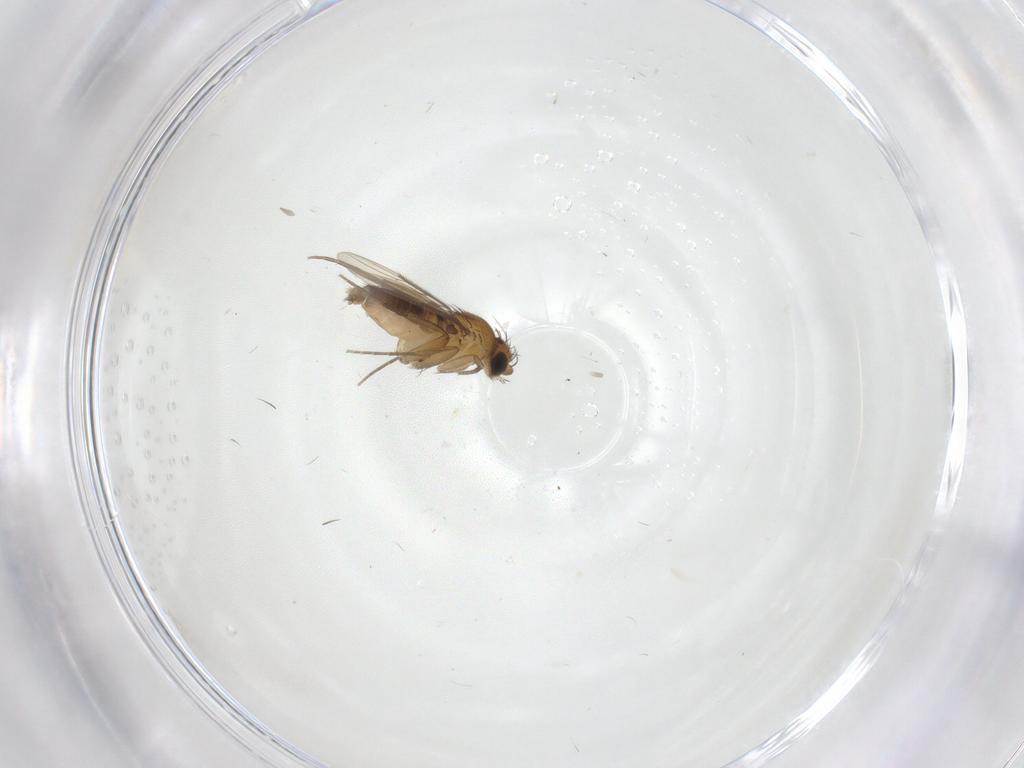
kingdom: Animalia
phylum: Arthropoda
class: Insecta
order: Diptera
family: Phoridae
